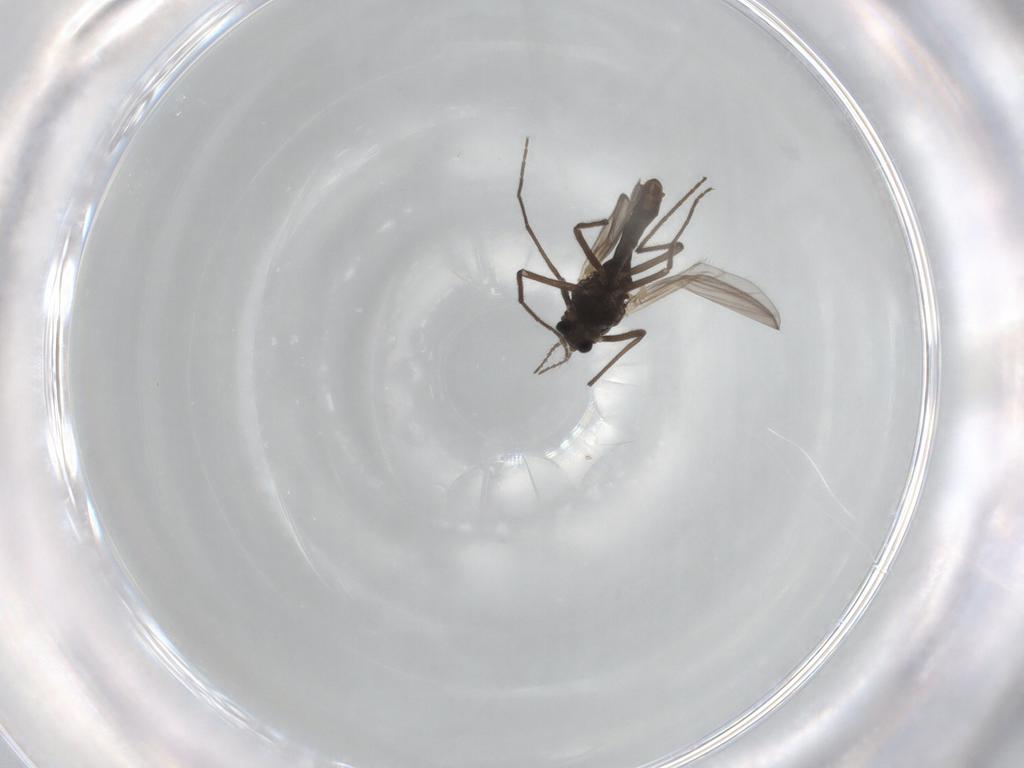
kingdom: Animalia
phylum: Arthropoda
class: Insecta
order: Diptera
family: Chironomidae
